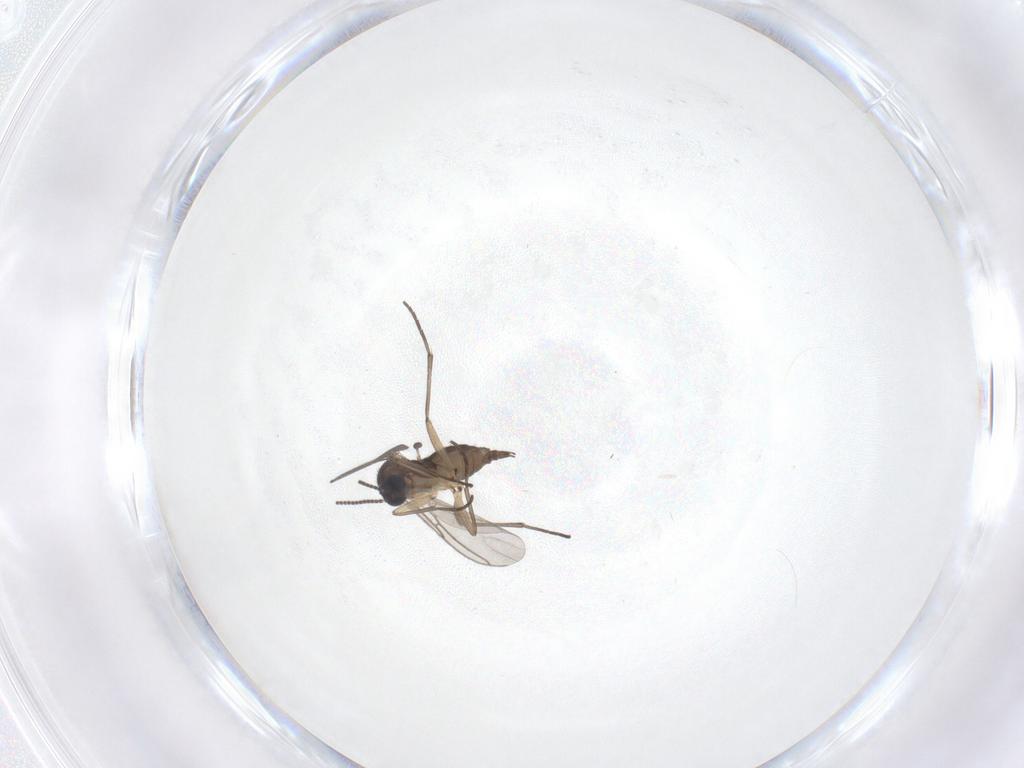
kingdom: Animalia
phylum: Arthropoda
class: Insecta
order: Diptera
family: Sciaridae
